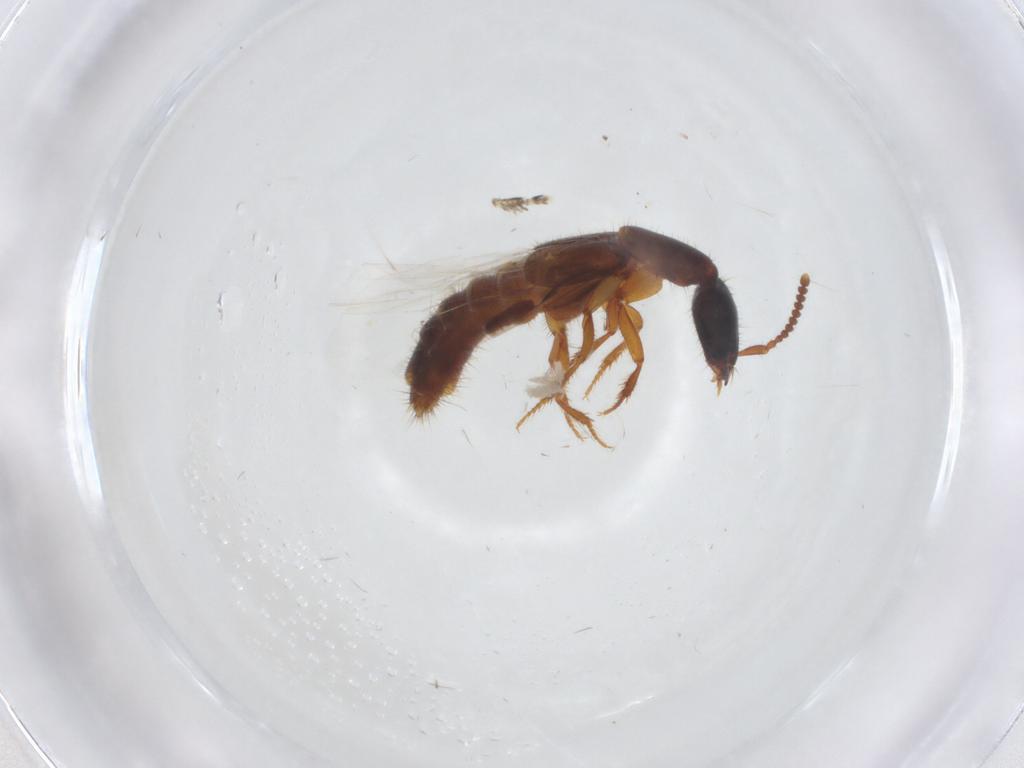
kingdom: Animalia
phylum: Arthropoda
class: Insecta
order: Coleoptera
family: Staphylinidae
